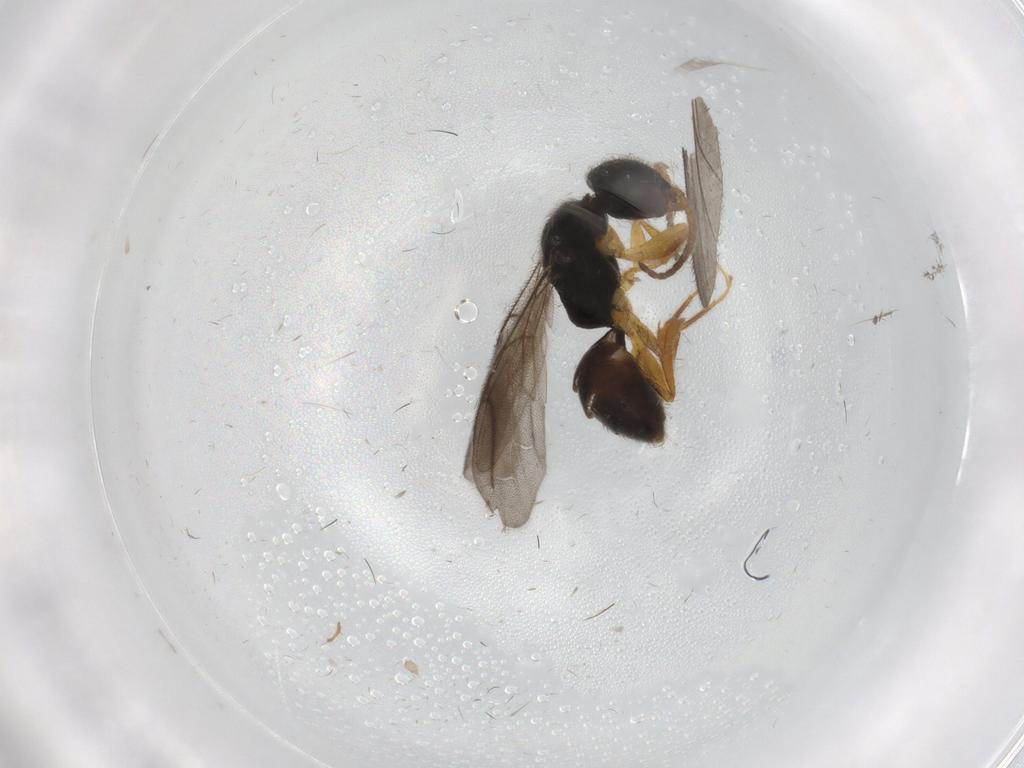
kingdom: Animalia
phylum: Arthropoda
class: Insecta
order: Hymenoptera
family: Bethylidae
